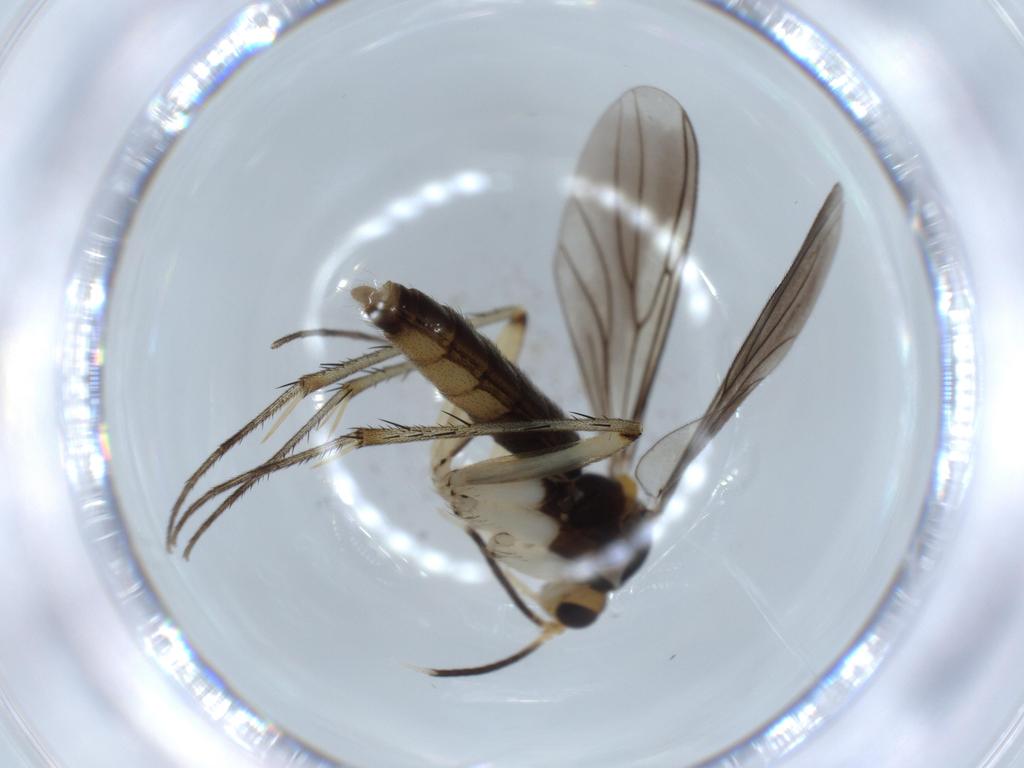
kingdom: Animalia
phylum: Arthropoda
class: Insecta
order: Diptera
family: Mycetophilidae
